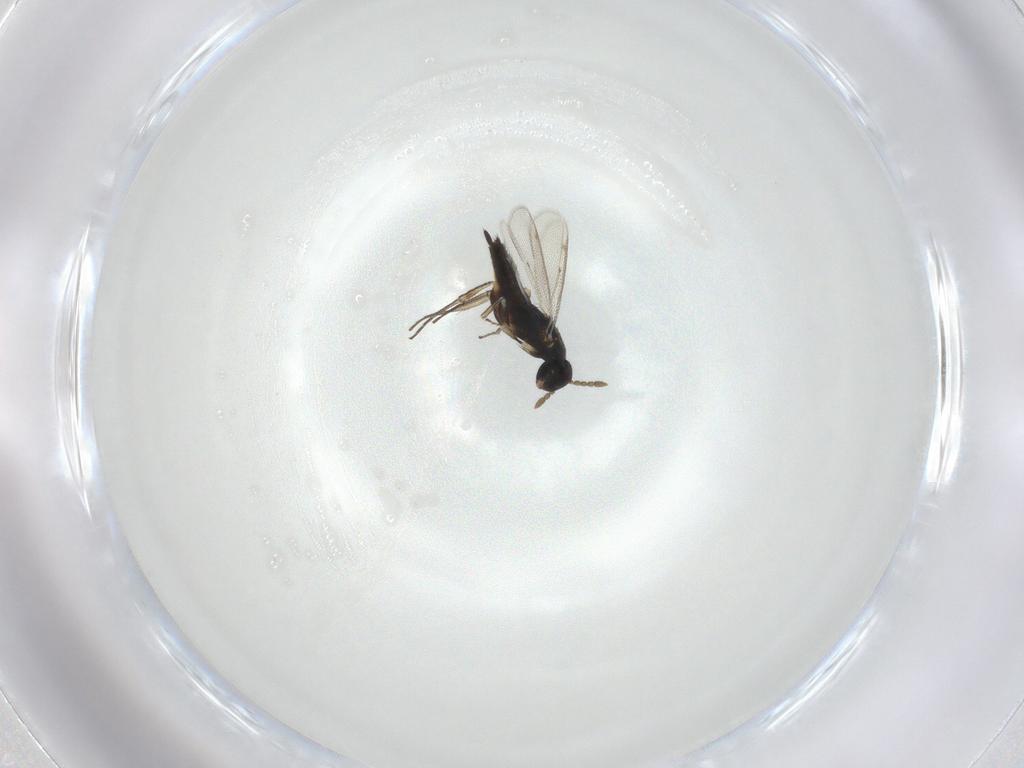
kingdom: Animalia
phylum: Arthropoda
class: Insecta
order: Hymenoptera
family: Eulophidae
